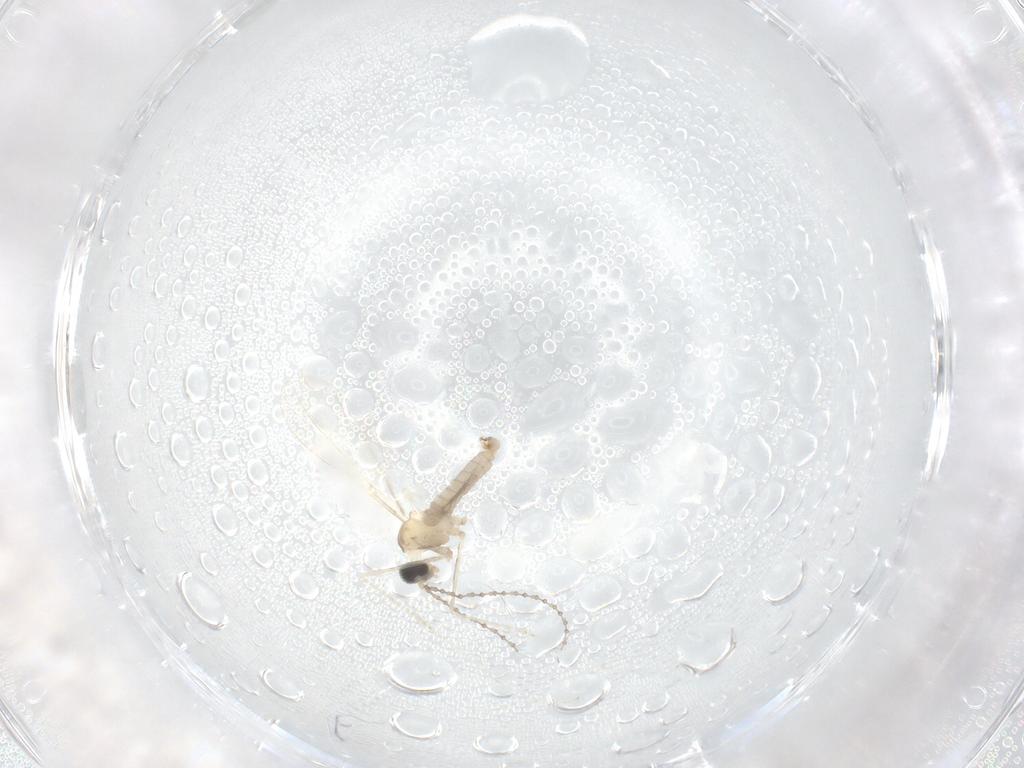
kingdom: Animalia
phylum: Arthropoda
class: Insecta
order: Diptera
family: Cecidomyiidae
